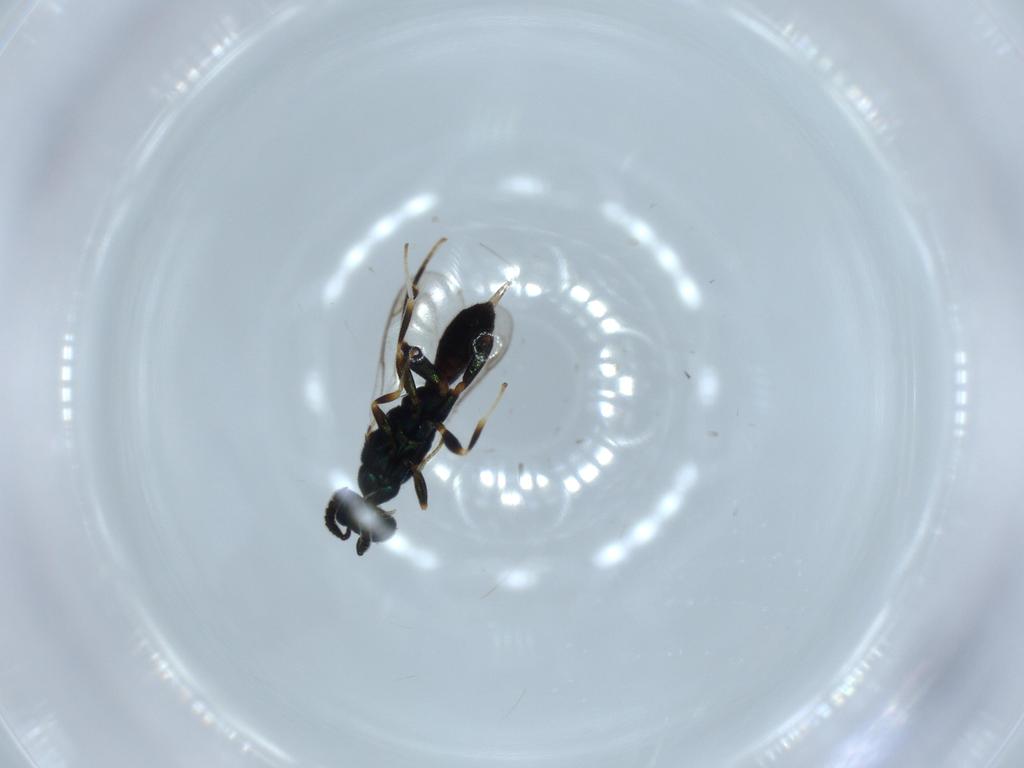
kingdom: Animalia
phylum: Arthropoda
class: Insecta
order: Hymenoptera
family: Cleonyminae
